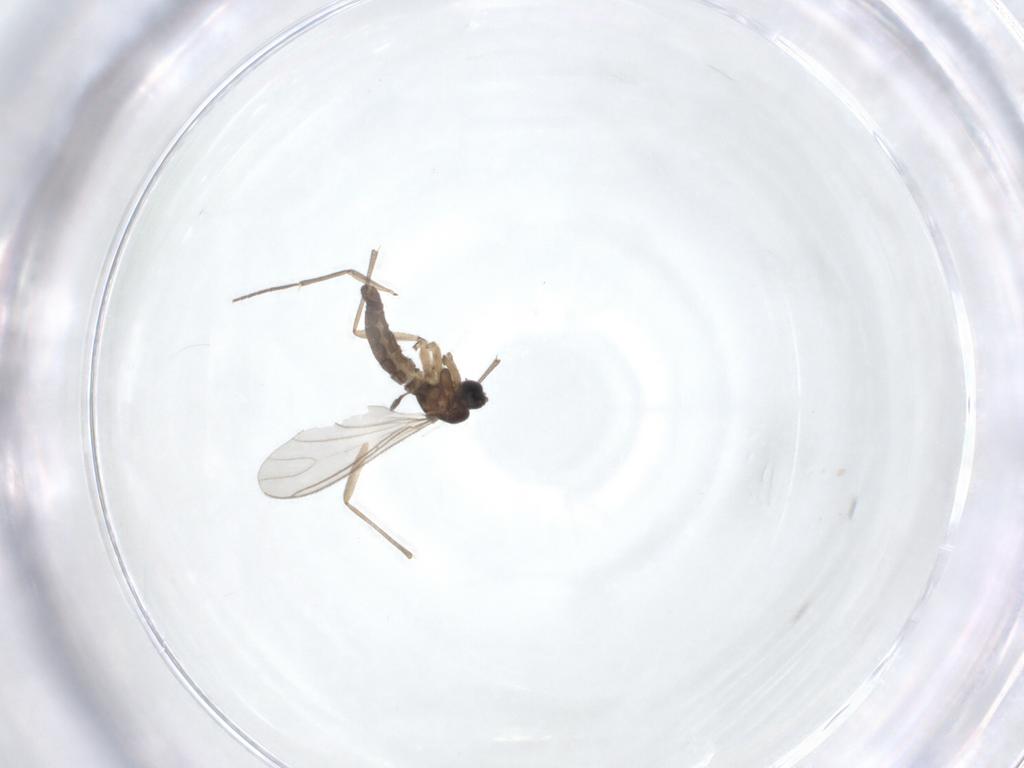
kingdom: Animalia
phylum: Arthropoda
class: Insecta
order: Diptera
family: Sciaridae
